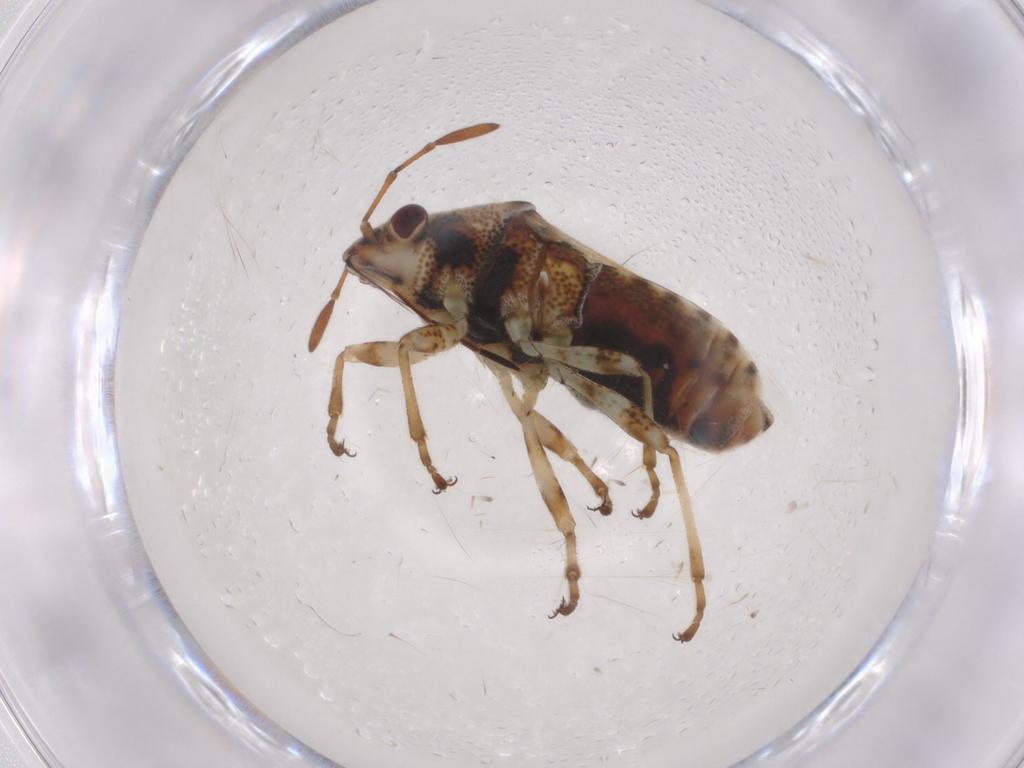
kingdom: Animalia
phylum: Arthropoda
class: Insecta
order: Hemiptera
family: Lygaeidae
